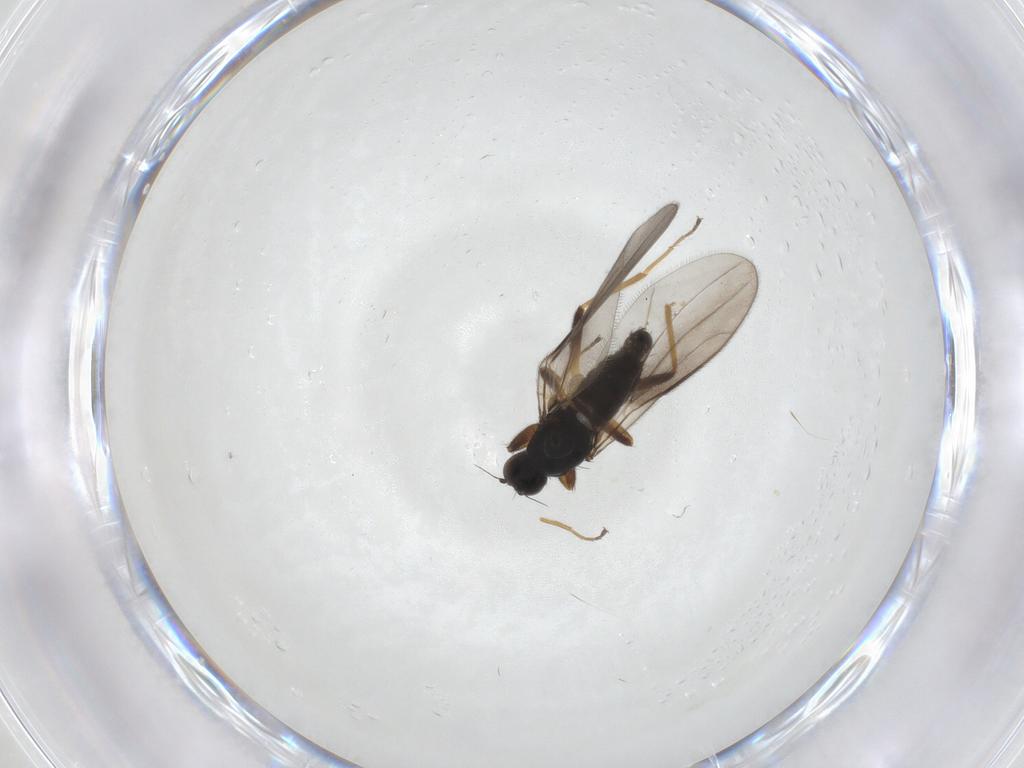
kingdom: Animalia
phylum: Arthropoda
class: Insecta
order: Diptera
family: Hybotidae
